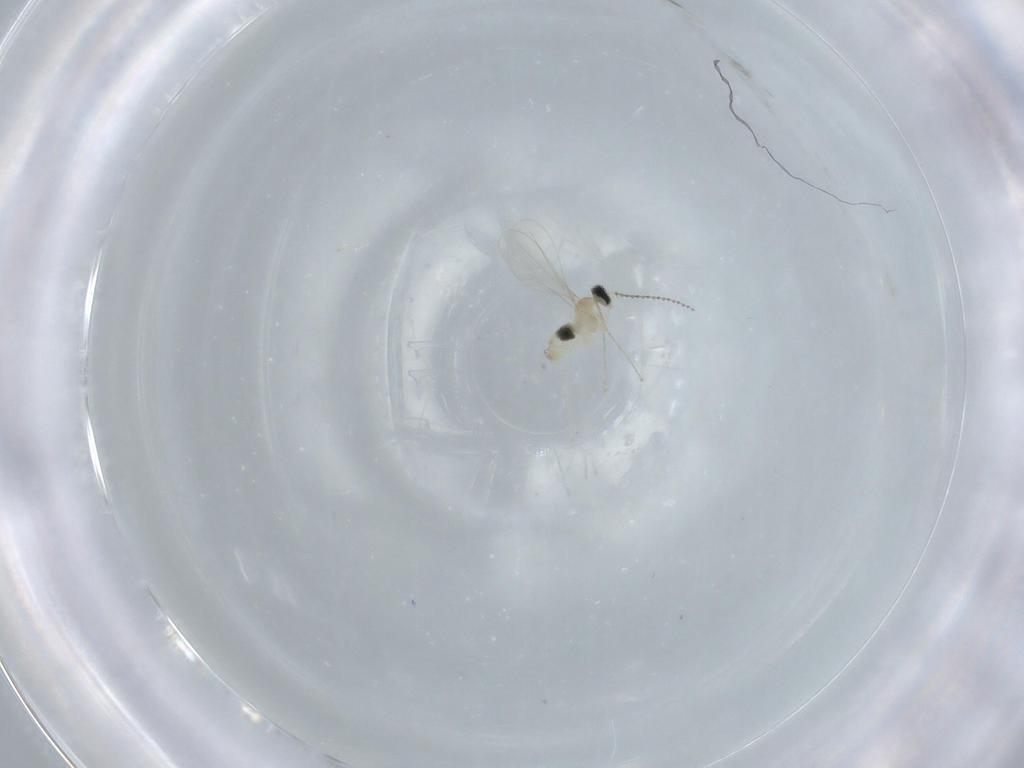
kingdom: Animalia
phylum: Arthropoda
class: Insecta
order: Diptera
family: Cecidomyiidae
